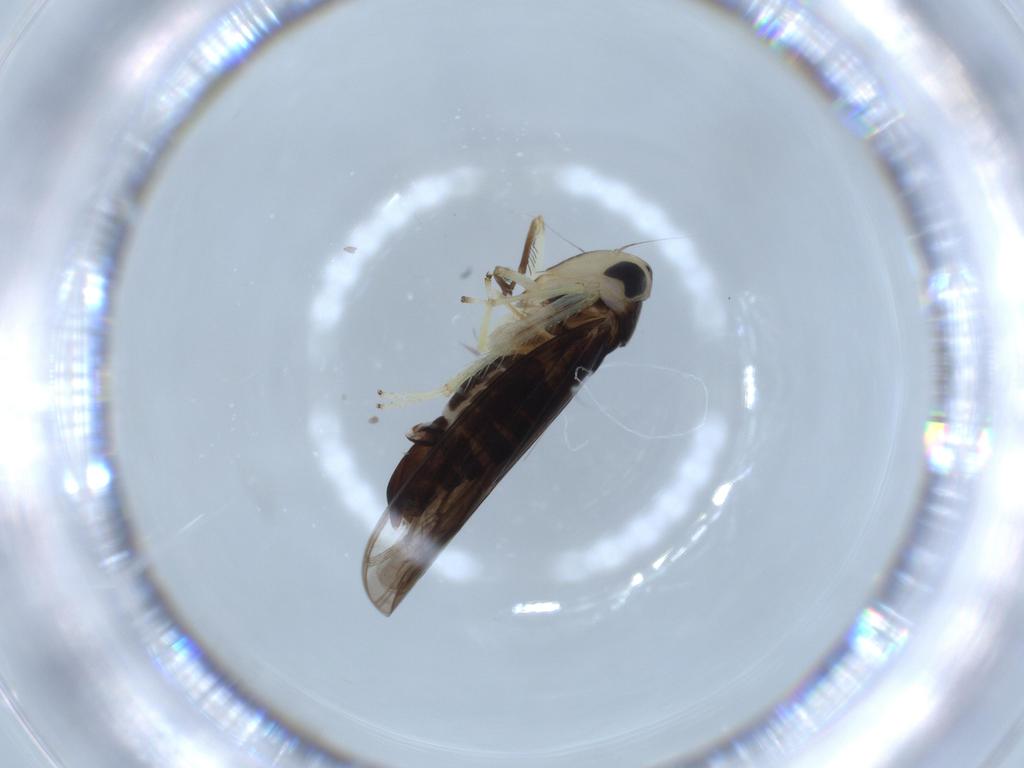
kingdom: Animalia
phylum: Arthropoda
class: Insecta
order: Hemiptera
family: Cicadellidae
